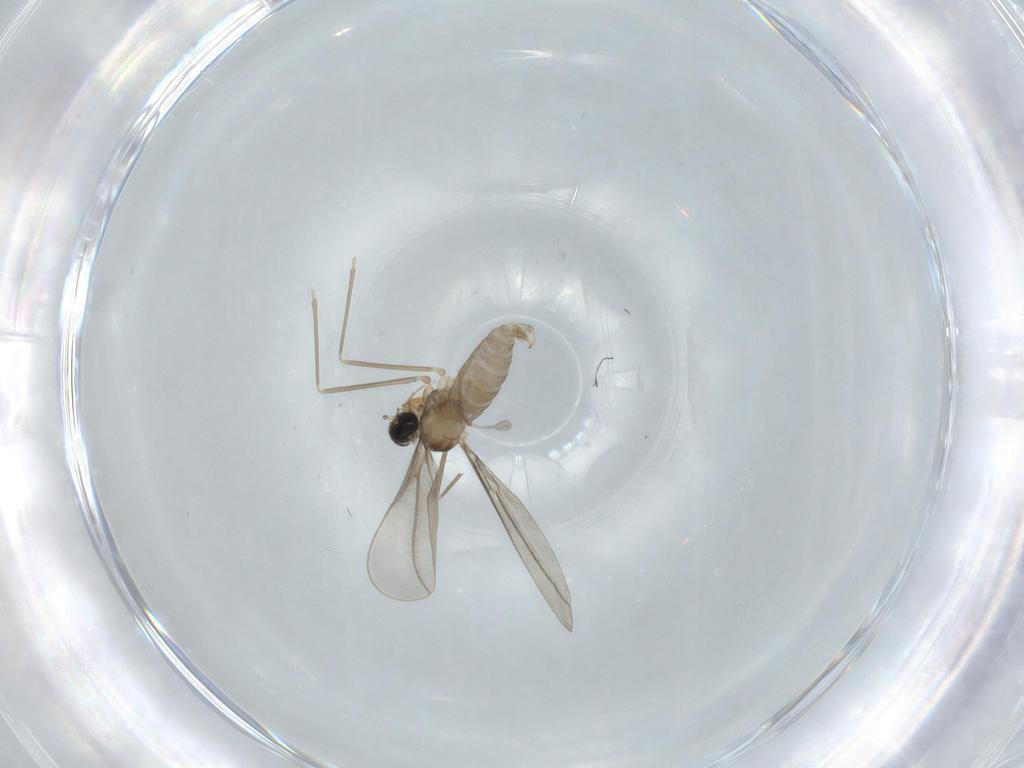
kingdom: Animalia
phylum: Arthropoda
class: Insecta
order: Diptera
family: Cecidomyiidae
